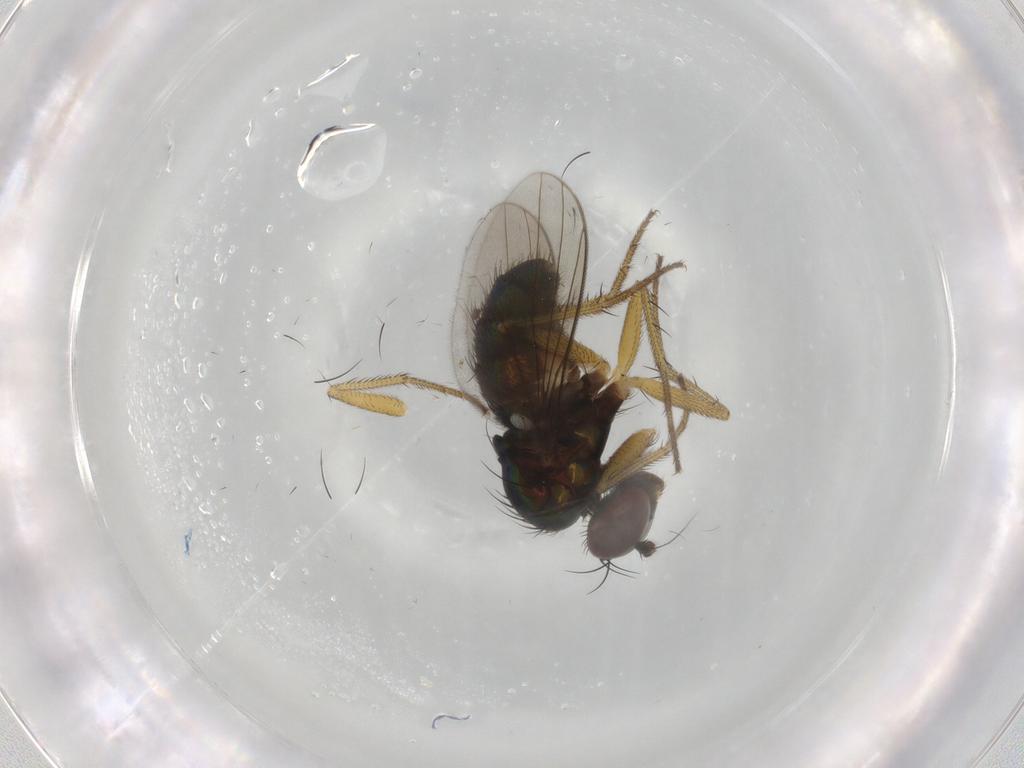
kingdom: Animalia
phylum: Arthropoda
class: Insecta
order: Diptera
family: Dolichopodidae
